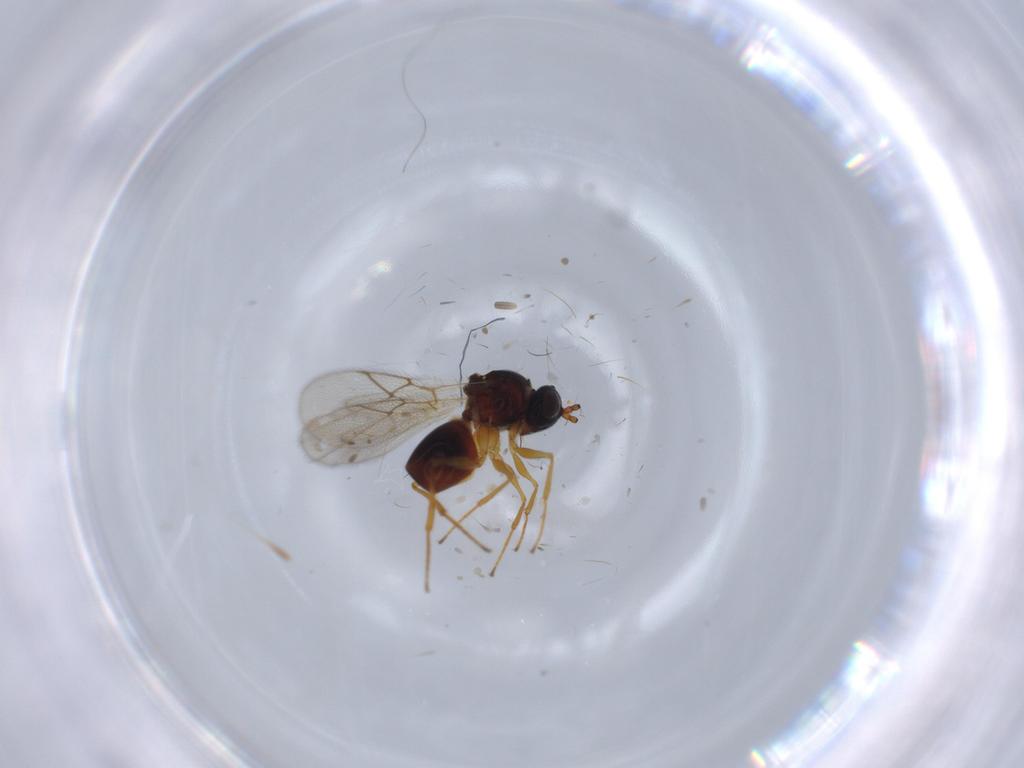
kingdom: Animalia
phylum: Arthropoda
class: Insecta
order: Hymenoptera
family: Figitidae
